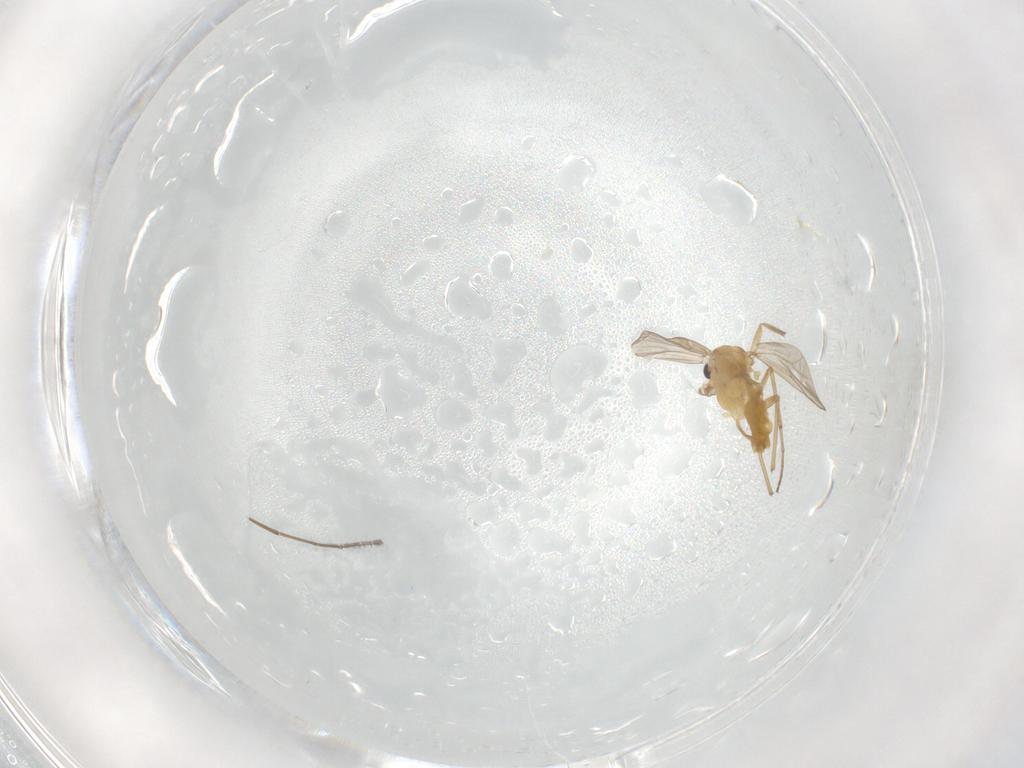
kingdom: Animalia
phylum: Arthropoda
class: Insecta
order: Diptera
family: Chironomidae
